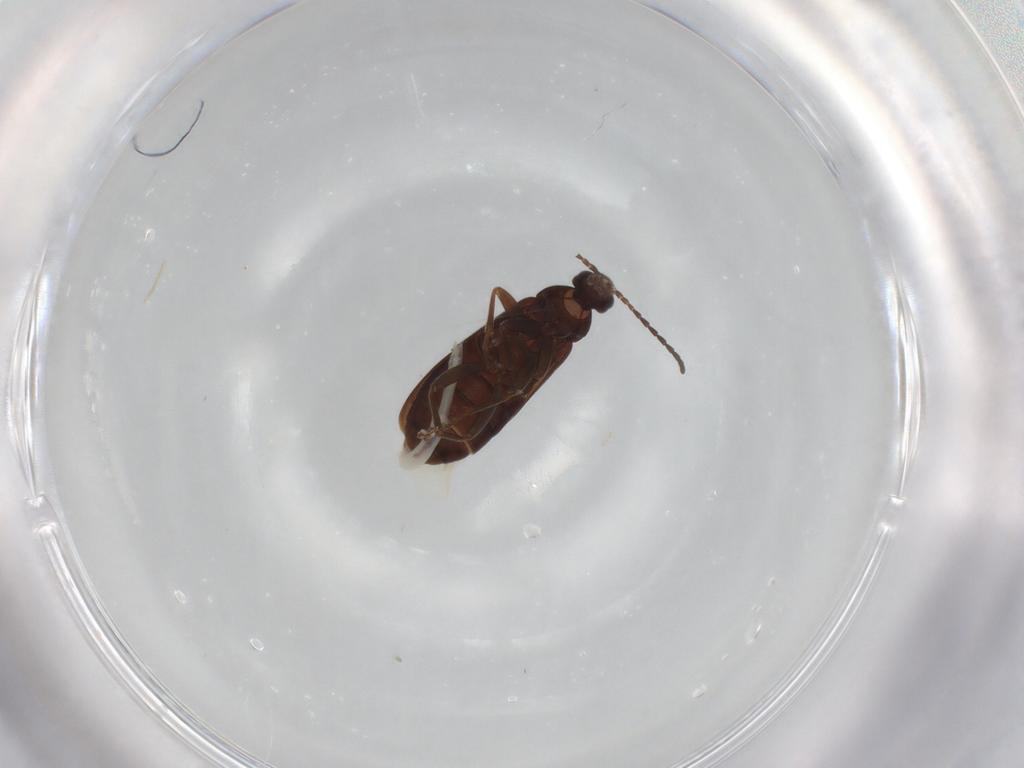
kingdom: Animalia
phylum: Arthropoda
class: Insecta
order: Coleoptera
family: Scraptiidae
